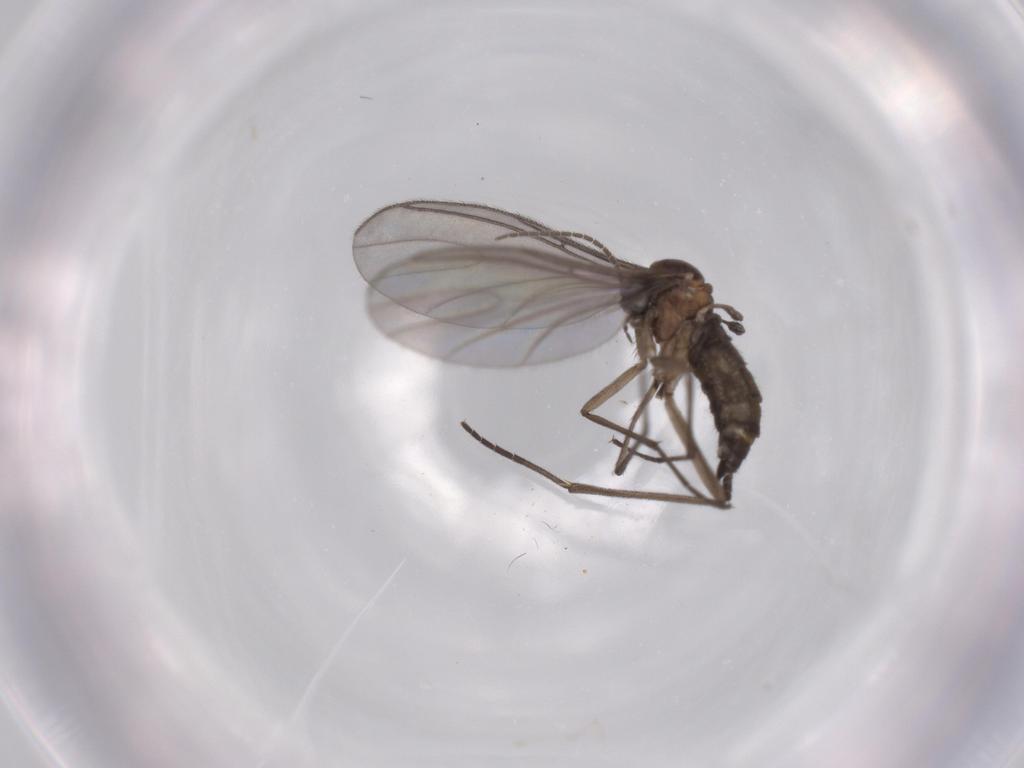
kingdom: Animalia
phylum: Arthropoda
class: Insecta
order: Diptera
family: Sciaridae
